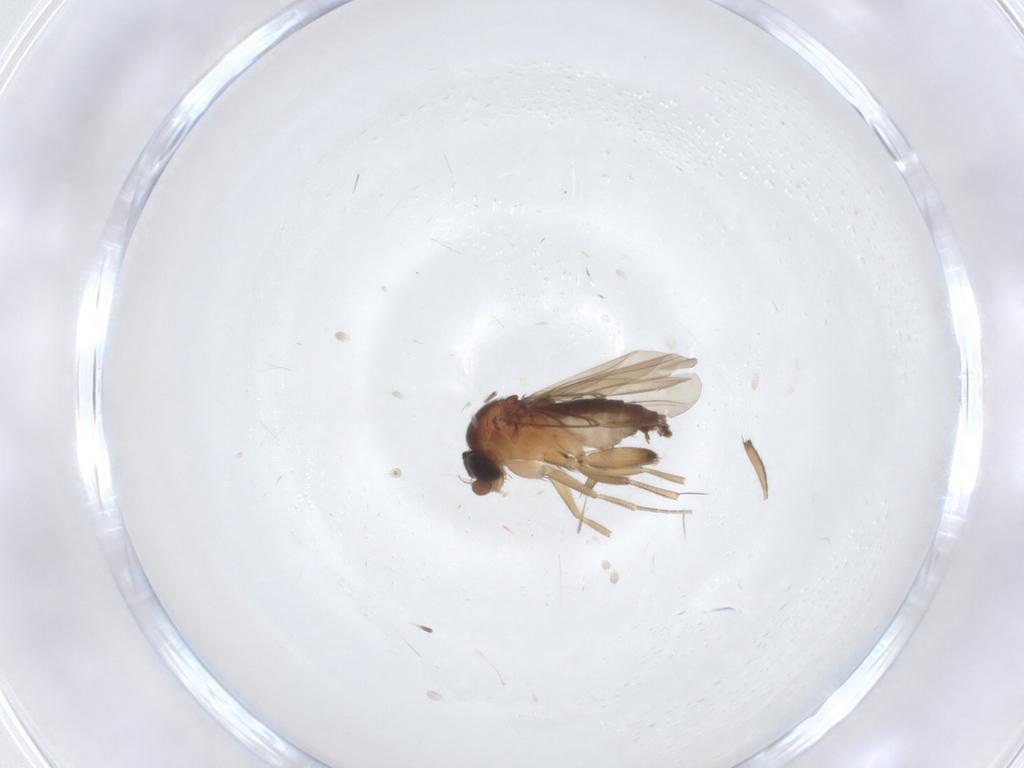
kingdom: Animalia
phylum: Arthropoda
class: Insecta
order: Diptera
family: Phoridae
